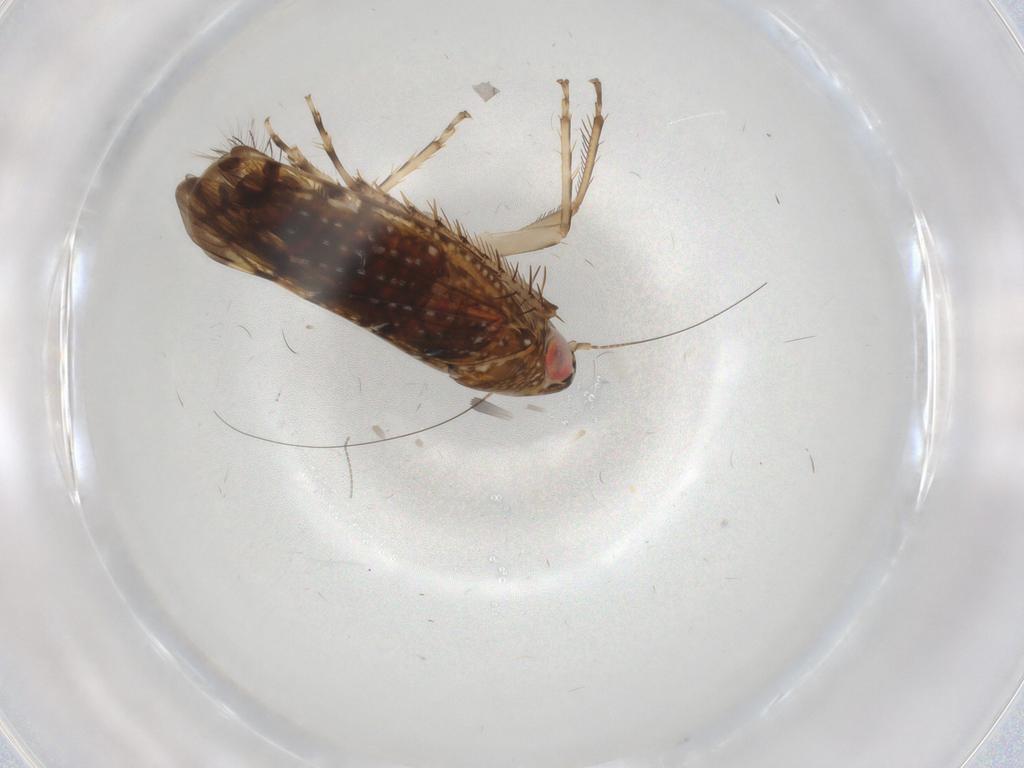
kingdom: Animalia
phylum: Arthropoda
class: Insecta
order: Hemiptera
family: Cicadellidae
